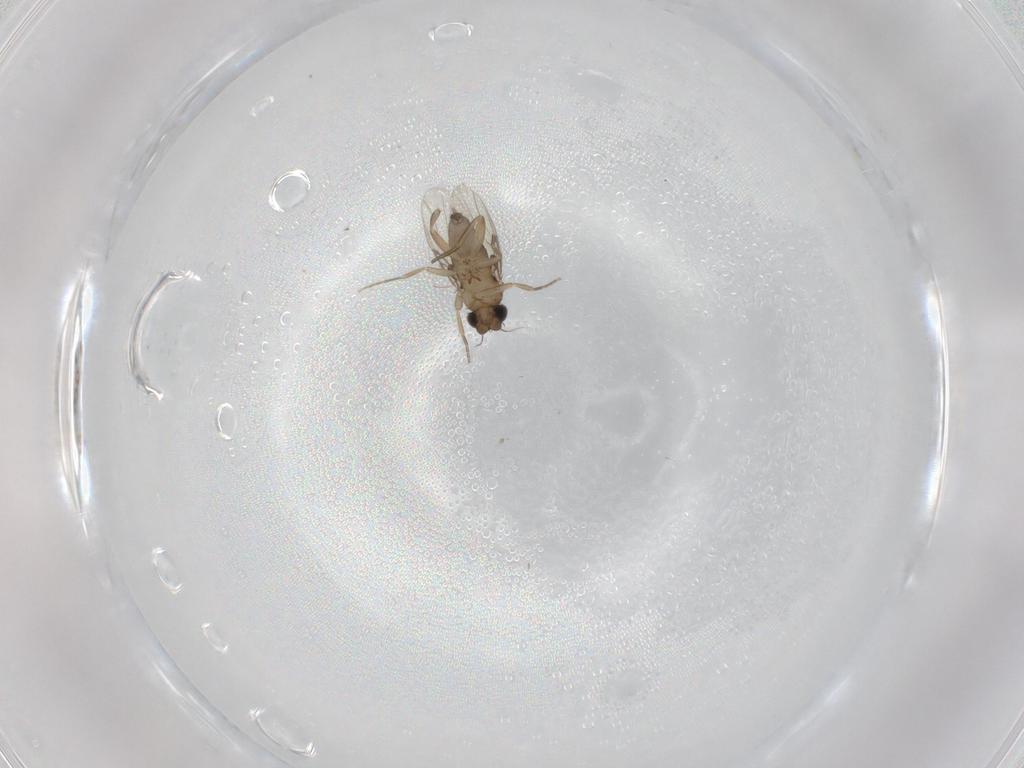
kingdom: Animalia
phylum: Arthropoda
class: Insecta
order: Diptera
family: Phoridae
